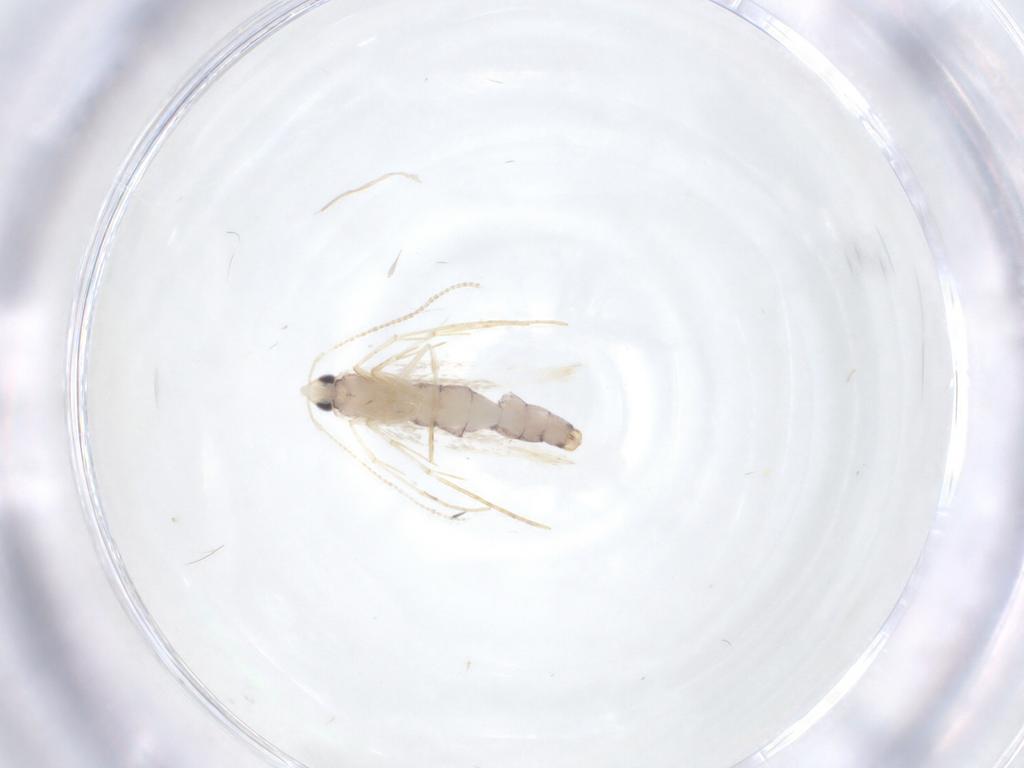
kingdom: Animalia
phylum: Arthropoda
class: Insecta
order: Lepidoptera
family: Tineidae
